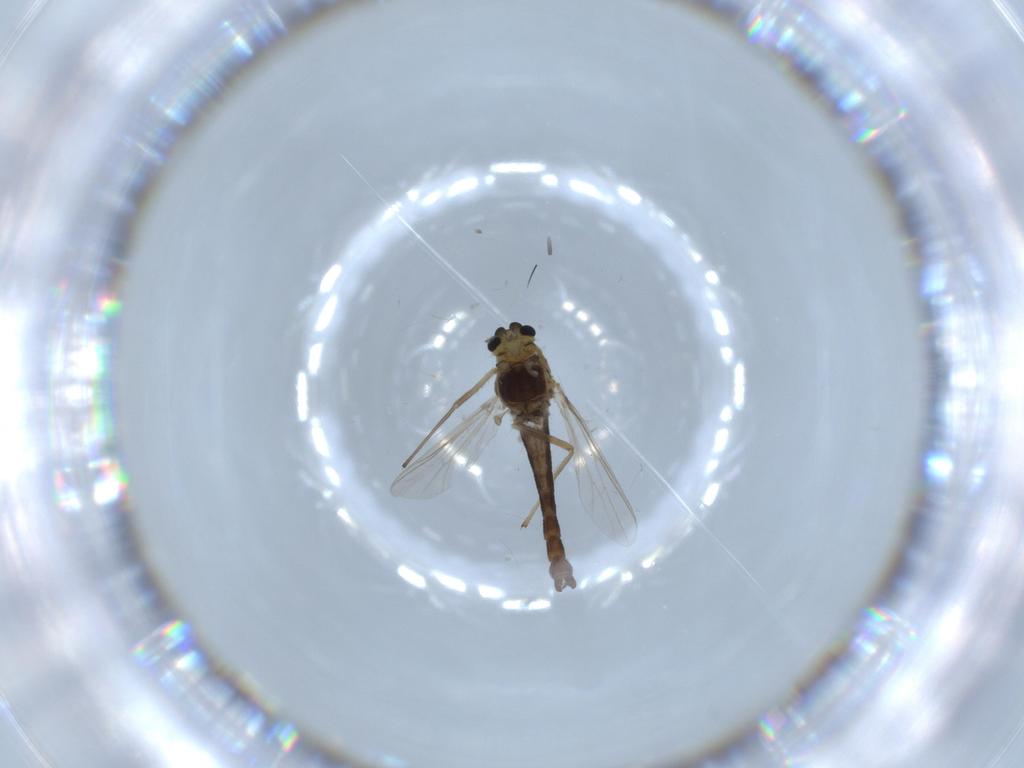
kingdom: Animalia
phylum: Arthropoda
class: Insecta
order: Diptera
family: Chironomidae
